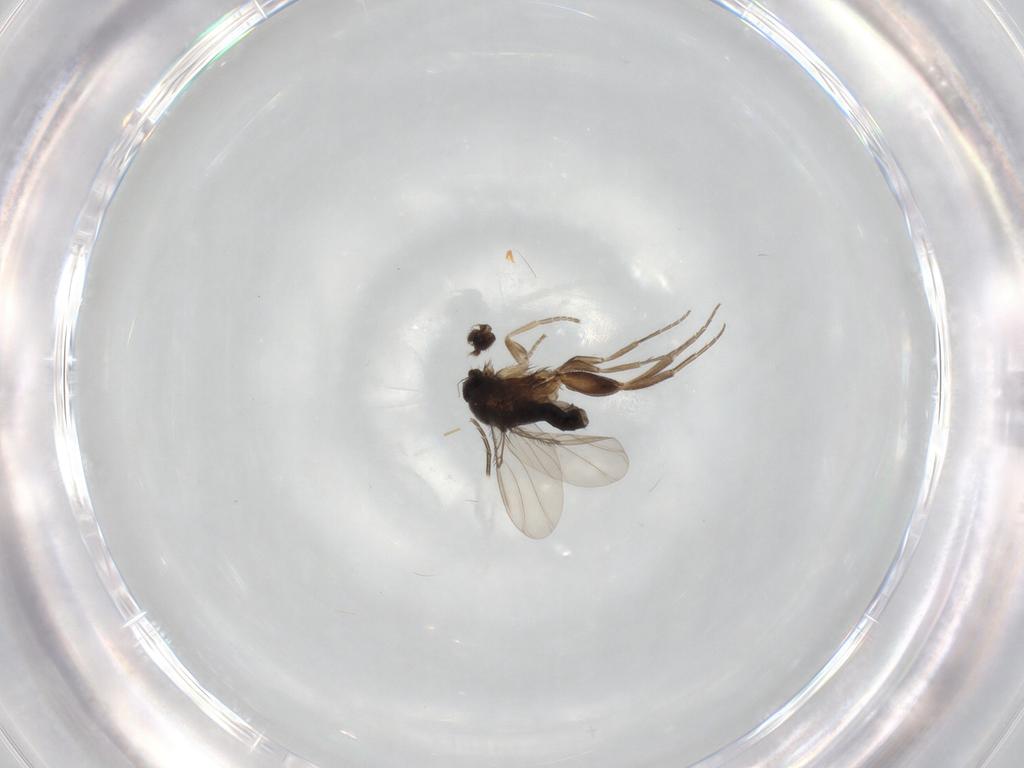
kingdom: Animalia
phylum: Arthropoda
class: Insecta
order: Diptera
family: Phoridae
